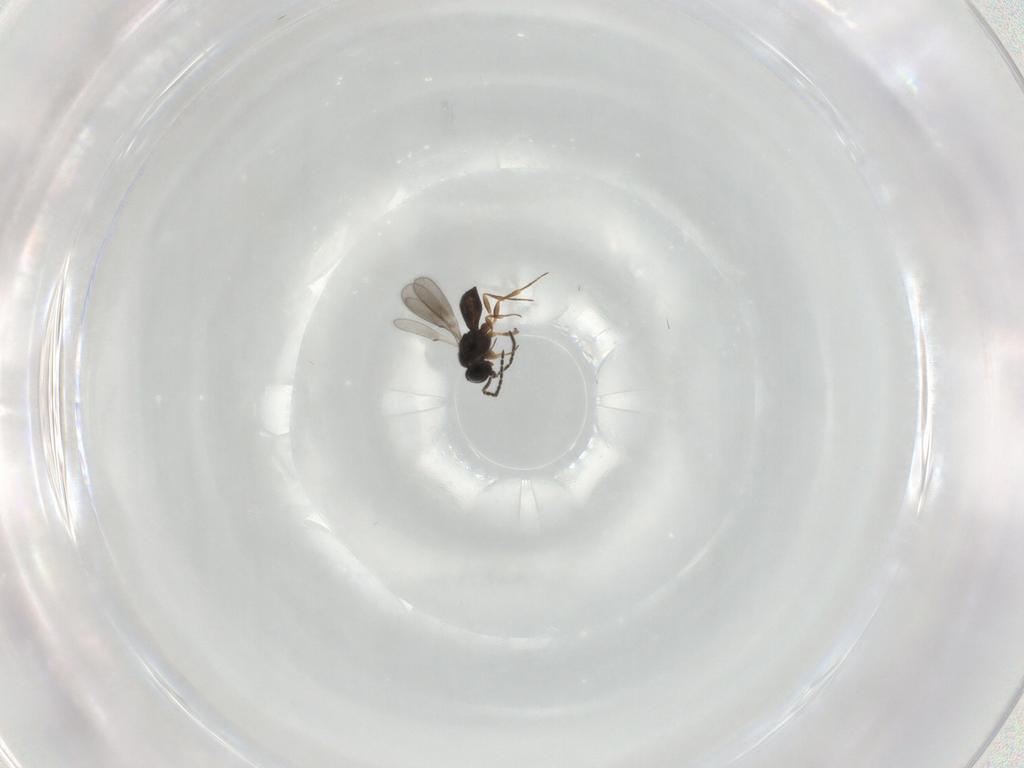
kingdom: Animalia
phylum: Arthropoda
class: Insecta
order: Hymenoptera
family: Scelionidae
